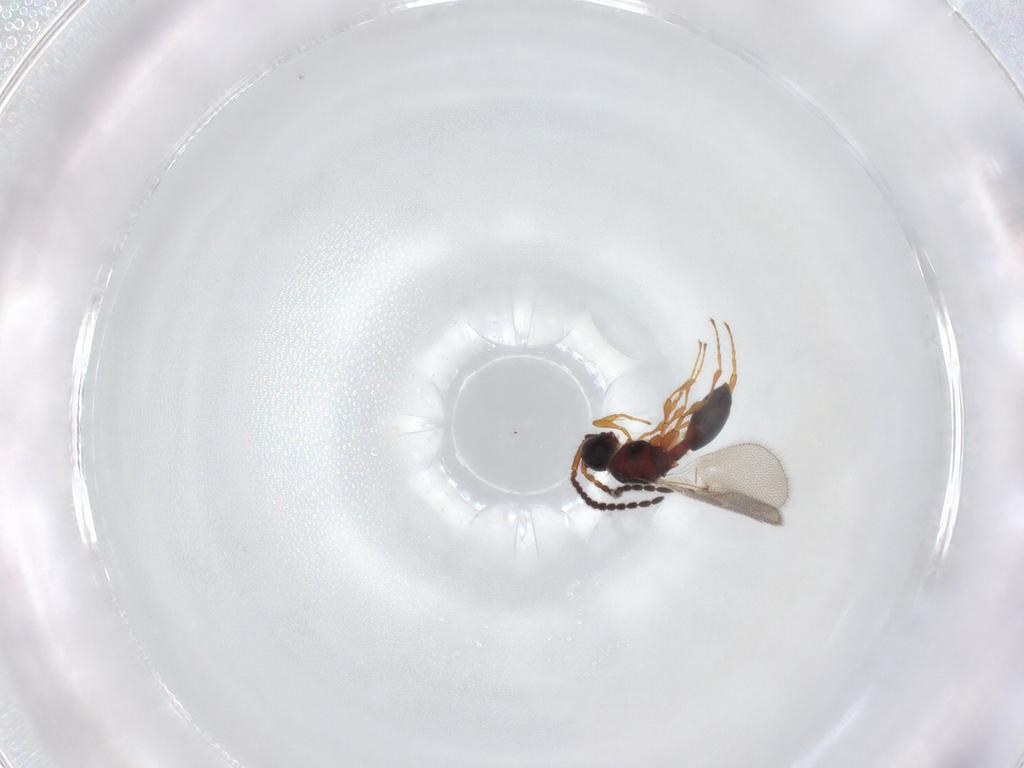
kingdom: Animalia
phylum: Arthropoda
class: Insecta
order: Hymenoptera
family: Diapriidae
